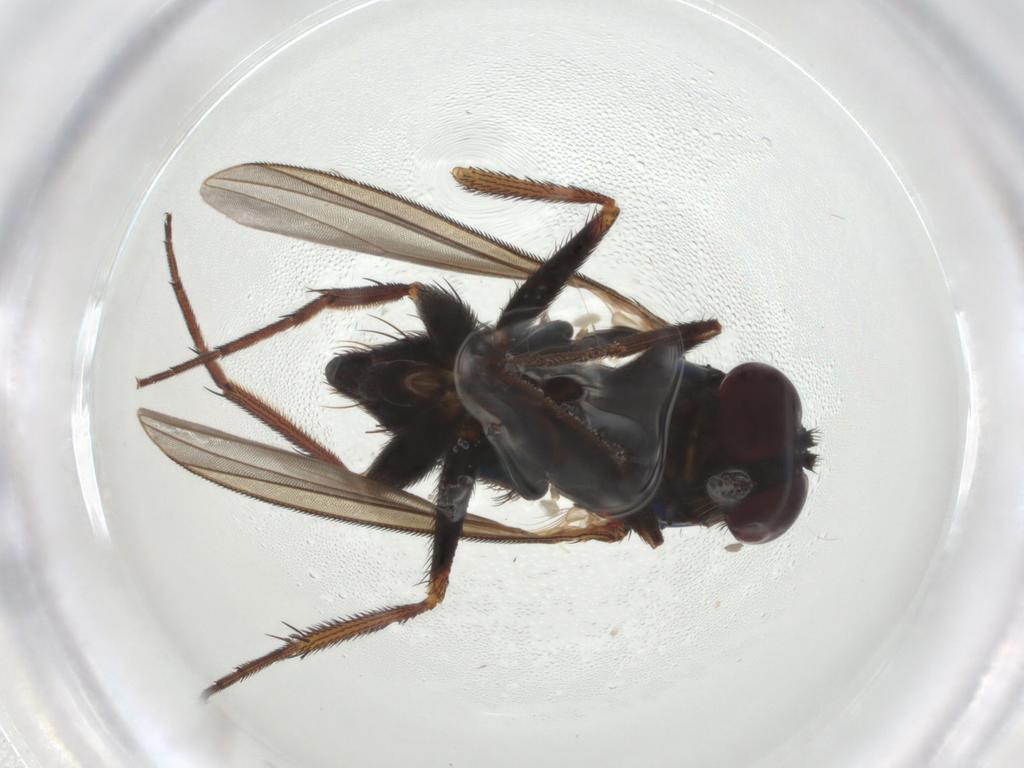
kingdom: Animalia
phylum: Arthropoda
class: Insecta
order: Diptera
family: Dolichopodidae
